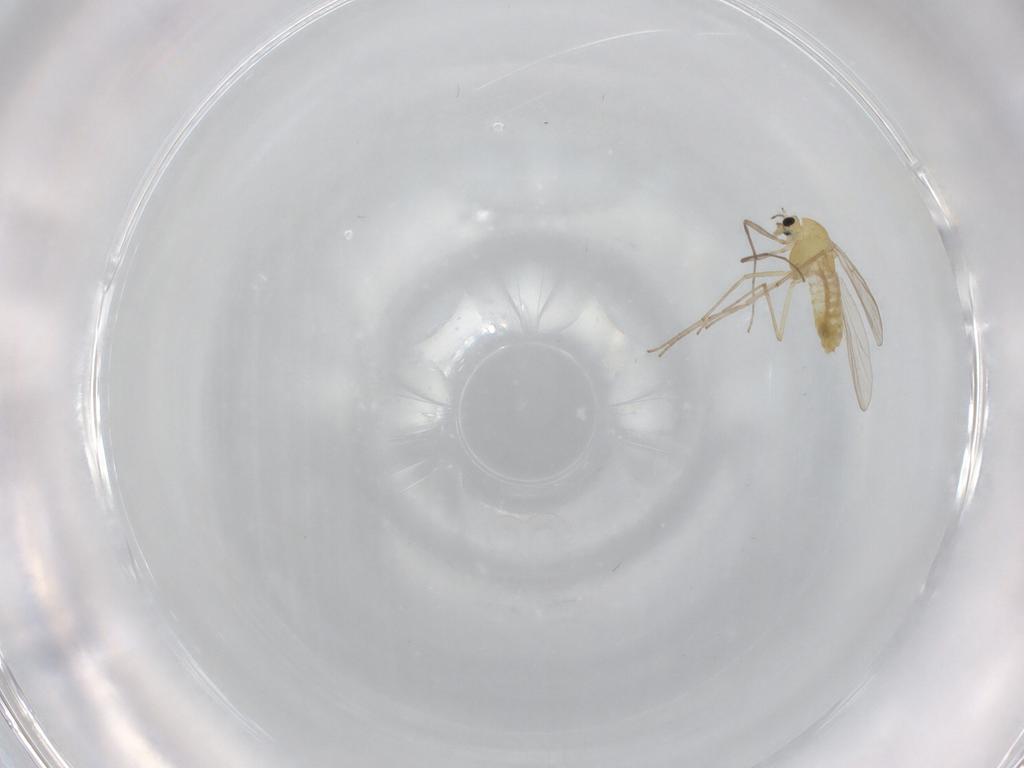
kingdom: Animalia
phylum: Arthropoda
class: Insecta
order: Diptera
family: Chironomidae
